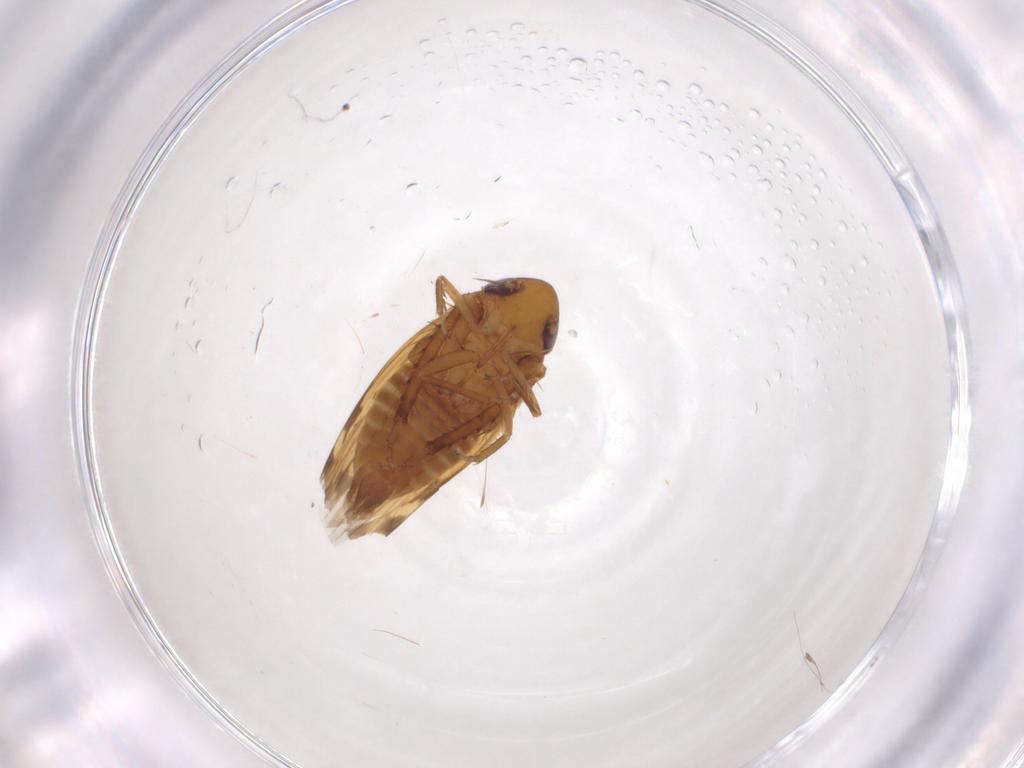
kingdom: Animalia
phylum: Arthropoda
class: Insecta
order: Hemiptera
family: Cicadellidae
